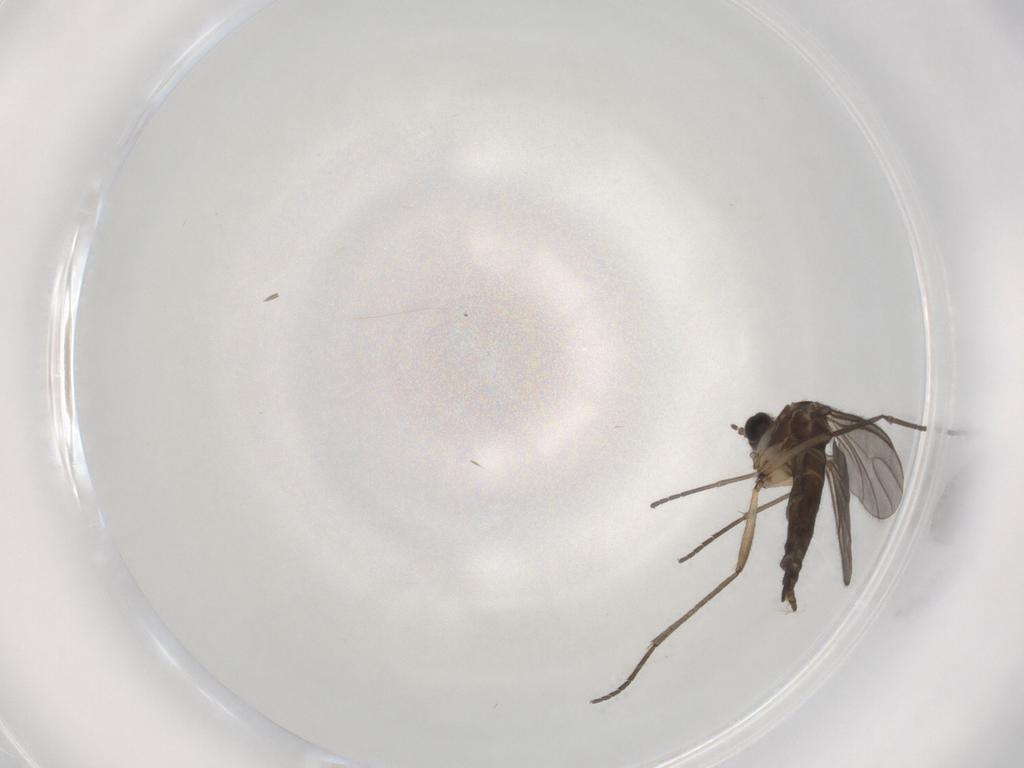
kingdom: Animalia
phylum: Arthropoda
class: Insecta
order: Diptera
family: Sciaridae
